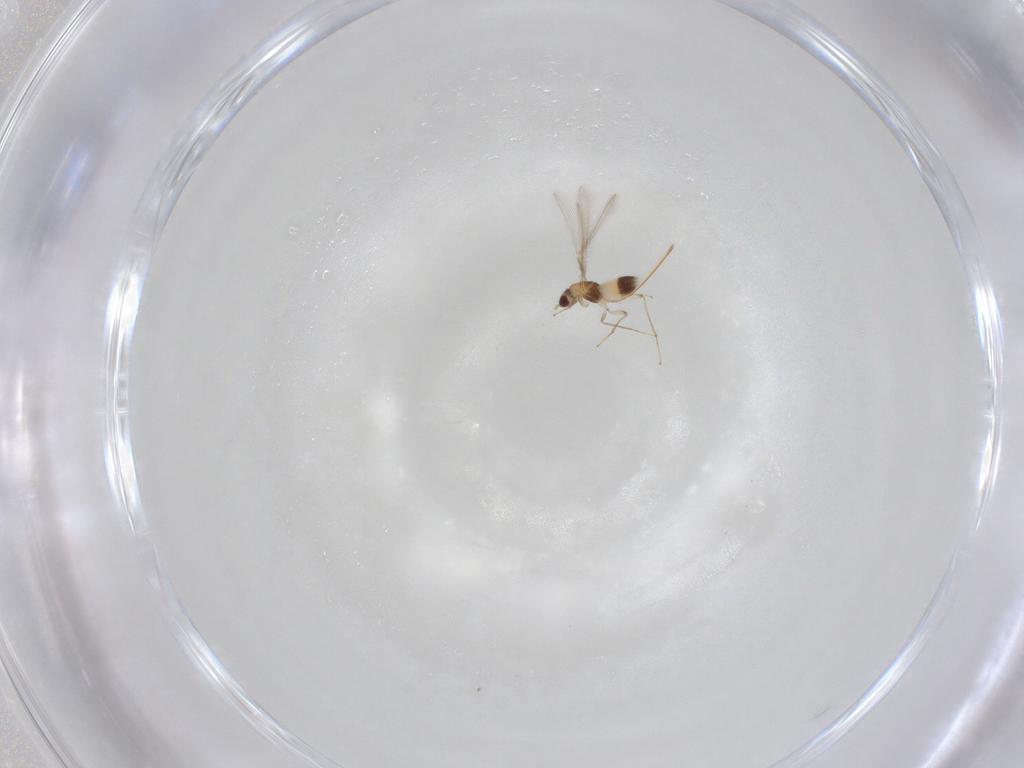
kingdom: Animalia
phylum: Arthropoda
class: Insecta
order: Hymenoptera
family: Mymaridae
